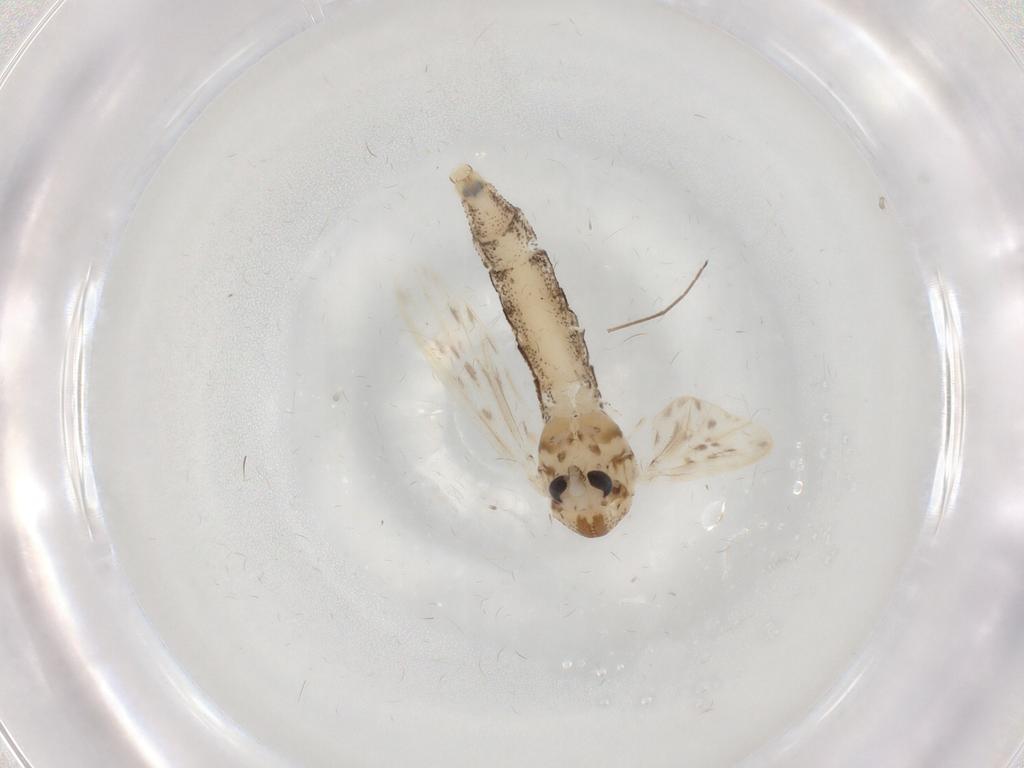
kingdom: Animalia
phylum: Arthropoda
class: Insecta
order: Diptera
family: Chaoboridae
